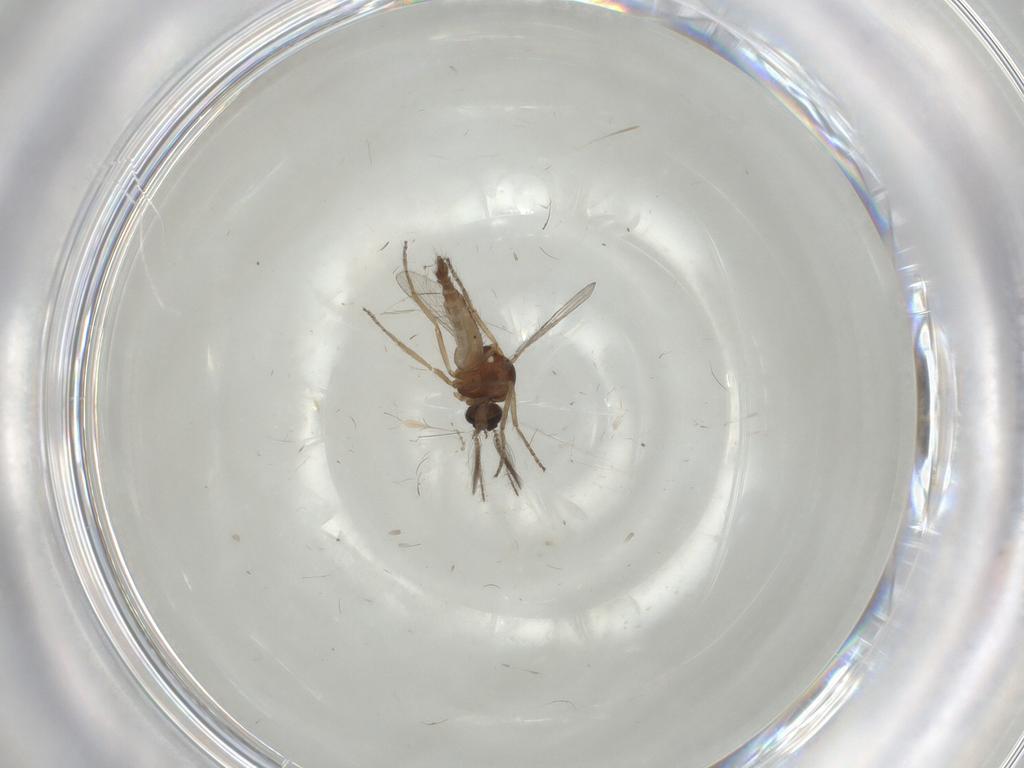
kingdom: Animalia
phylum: Arthropoda
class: Insecta
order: Diptera
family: Cecidomyiidae
